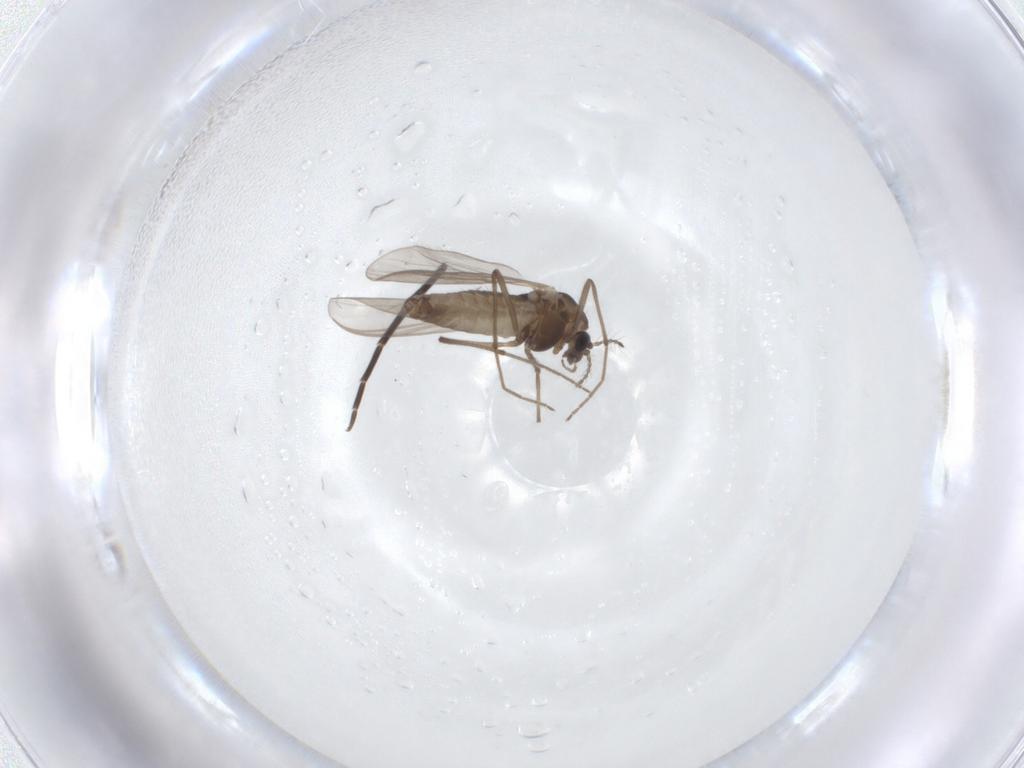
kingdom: Animalia
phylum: Arthropoda
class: Insecta
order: Diptera
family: Chironomidae
